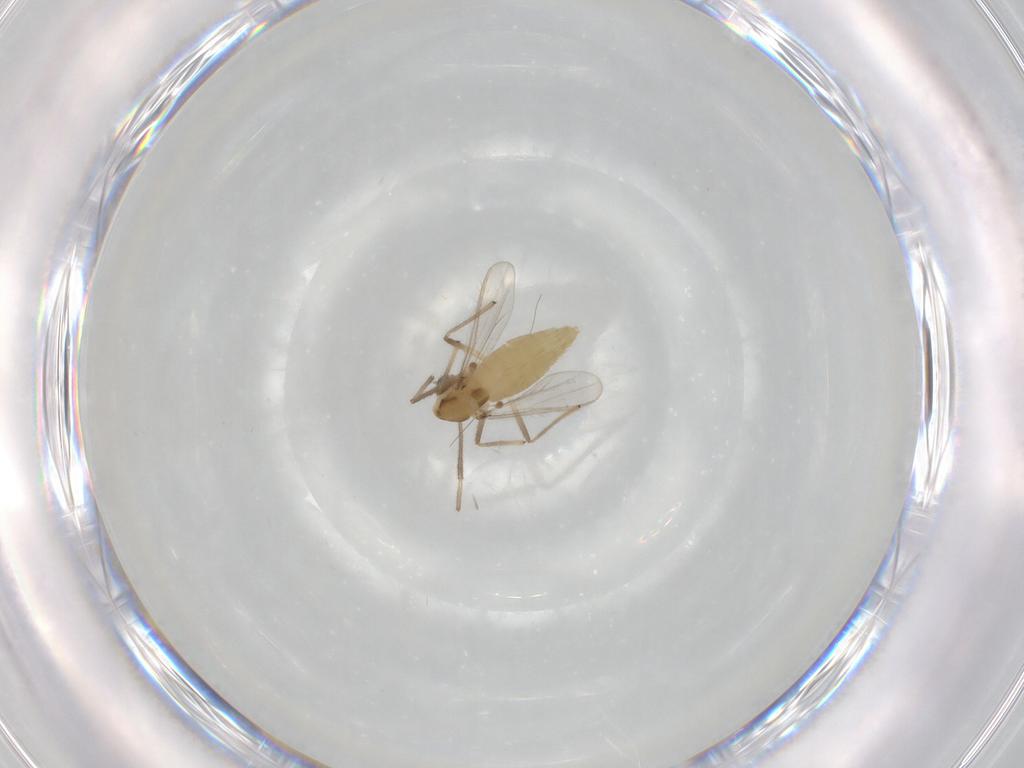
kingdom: Animalia
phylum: Arthropoda
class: Insecta
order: Diptera
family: Chironomidae
